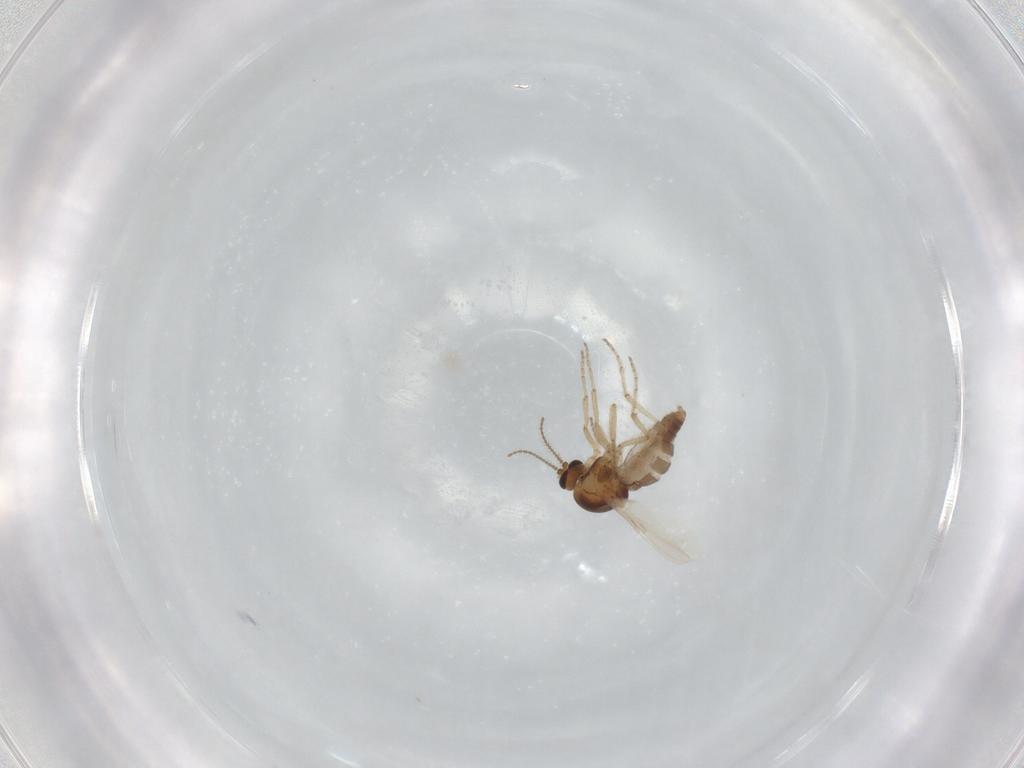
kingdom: Animalia
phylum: Arthropoda
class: Insecta
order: Diptera
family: Ceratopogonidae
